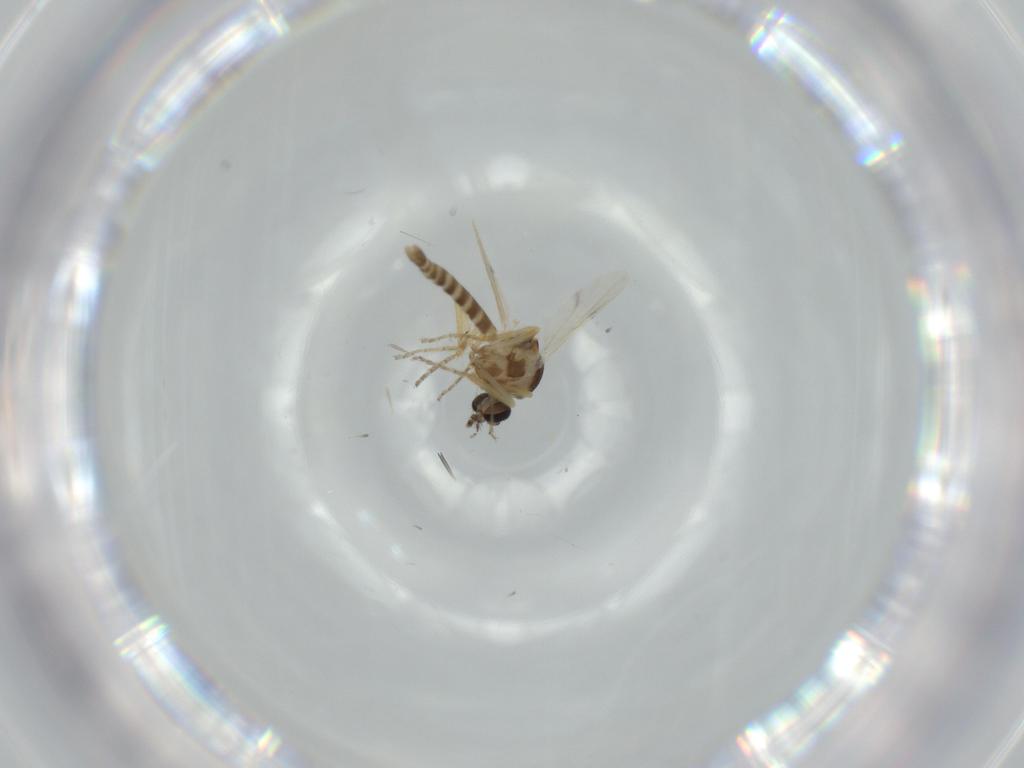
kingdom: Animalia
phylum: Arthropoda
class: Insecta
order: Diptera
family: Ceratopogonidae
